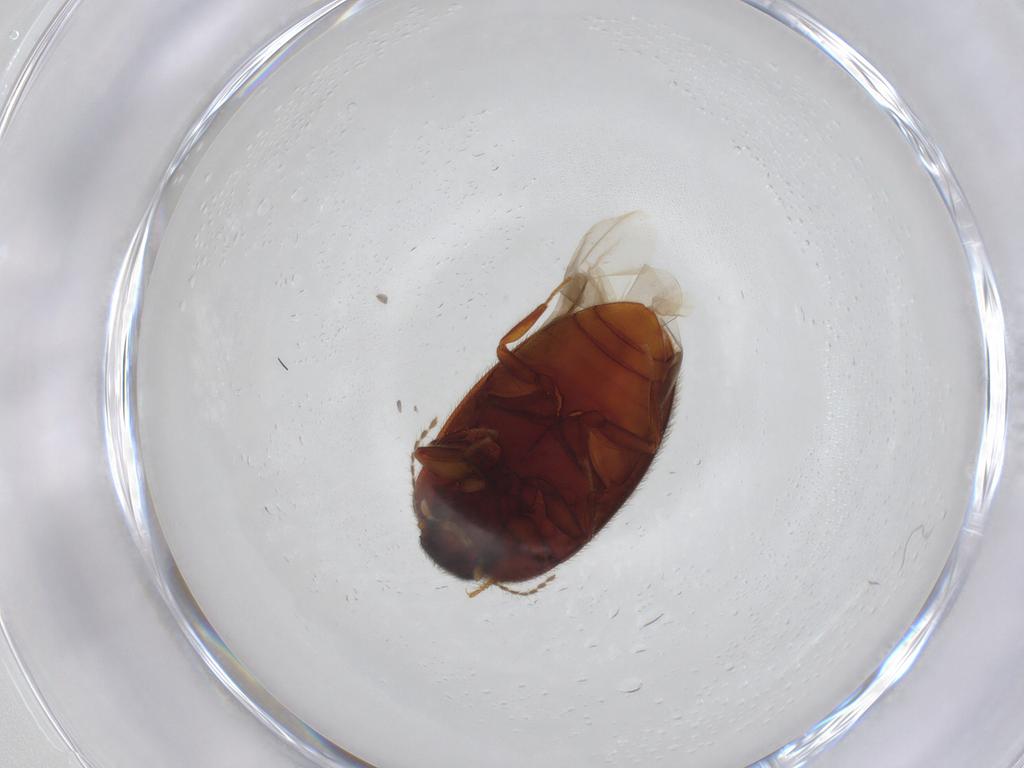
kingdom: Animalia
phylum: Arthropoda
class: Insecta
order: Coleoptera
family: Limnichidae
